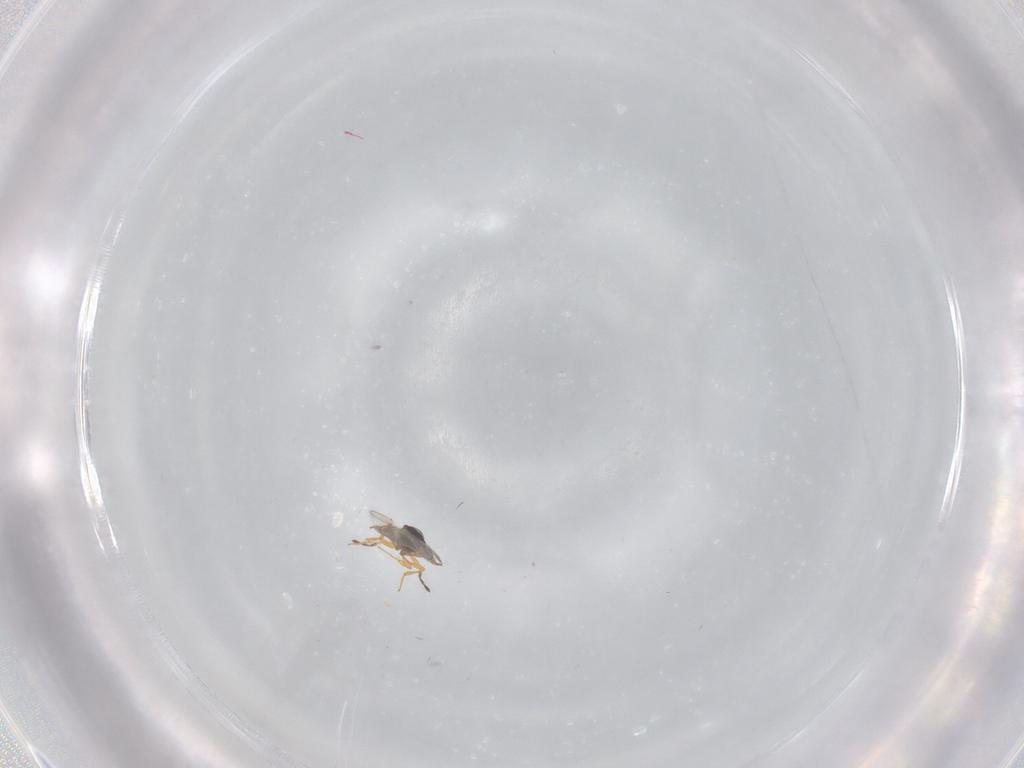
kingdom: Animalia
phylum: Arthropoda
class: Insecta
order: Hymenoptera
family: Platygastridae
